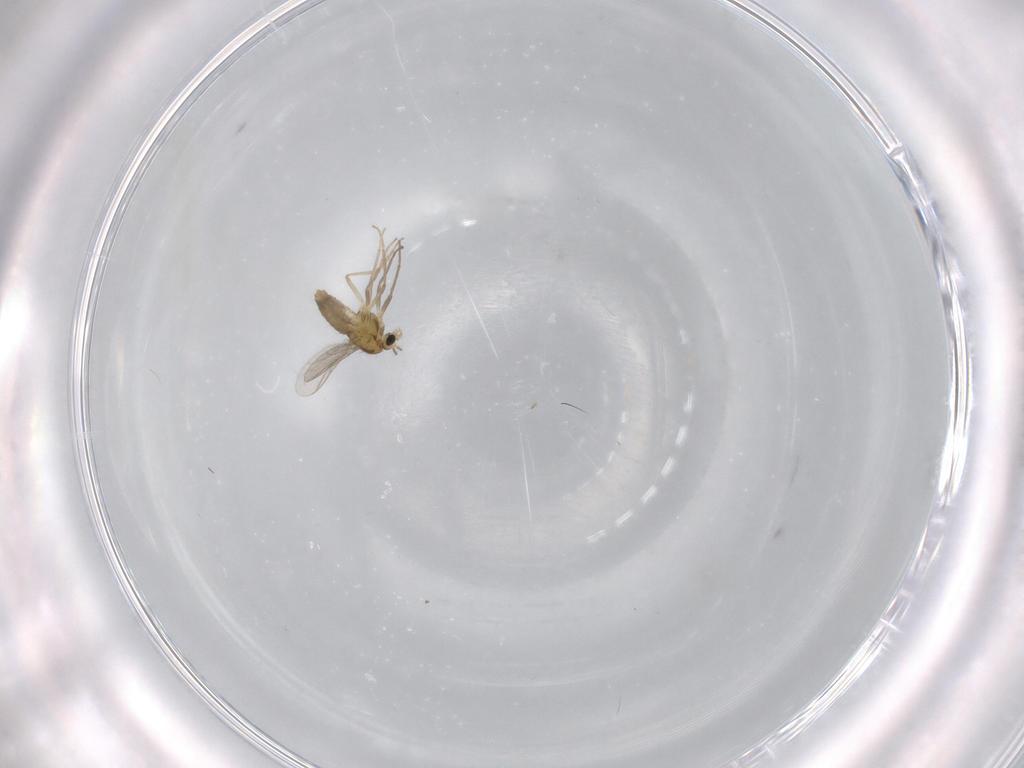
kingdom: Animalia
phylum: Arthropoda
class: Insecta
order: Diptera
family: Chironomidae
